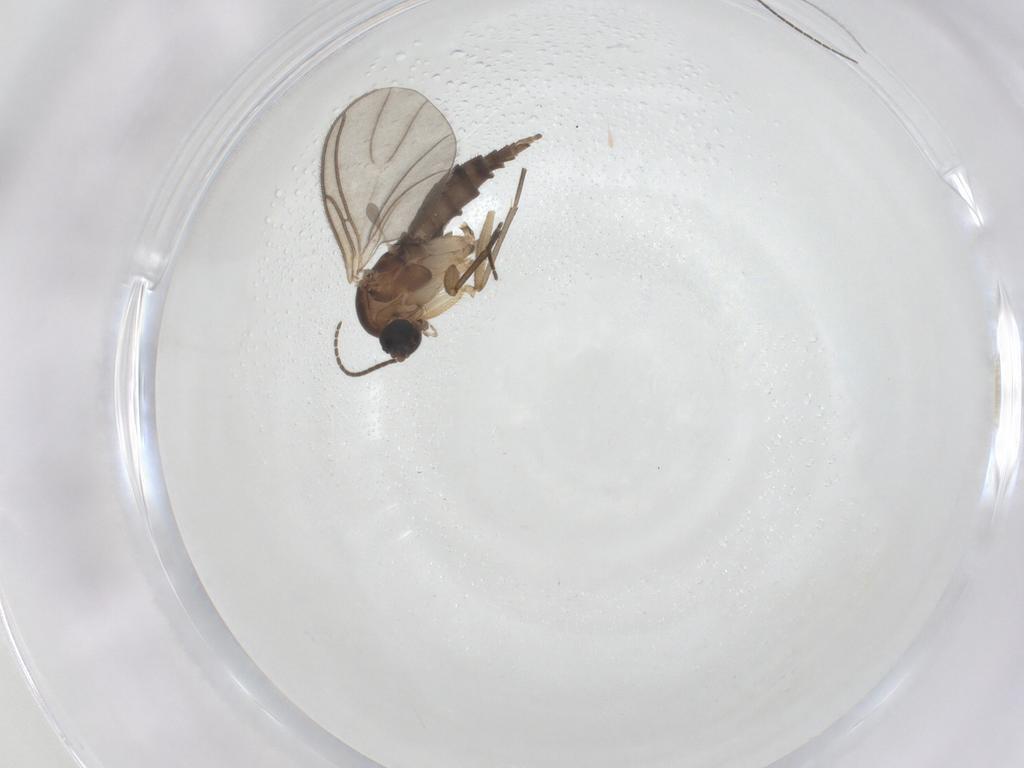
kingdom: Animalia
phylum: Arthropoda
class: Insecta
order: Diptera
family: Sciaridae
